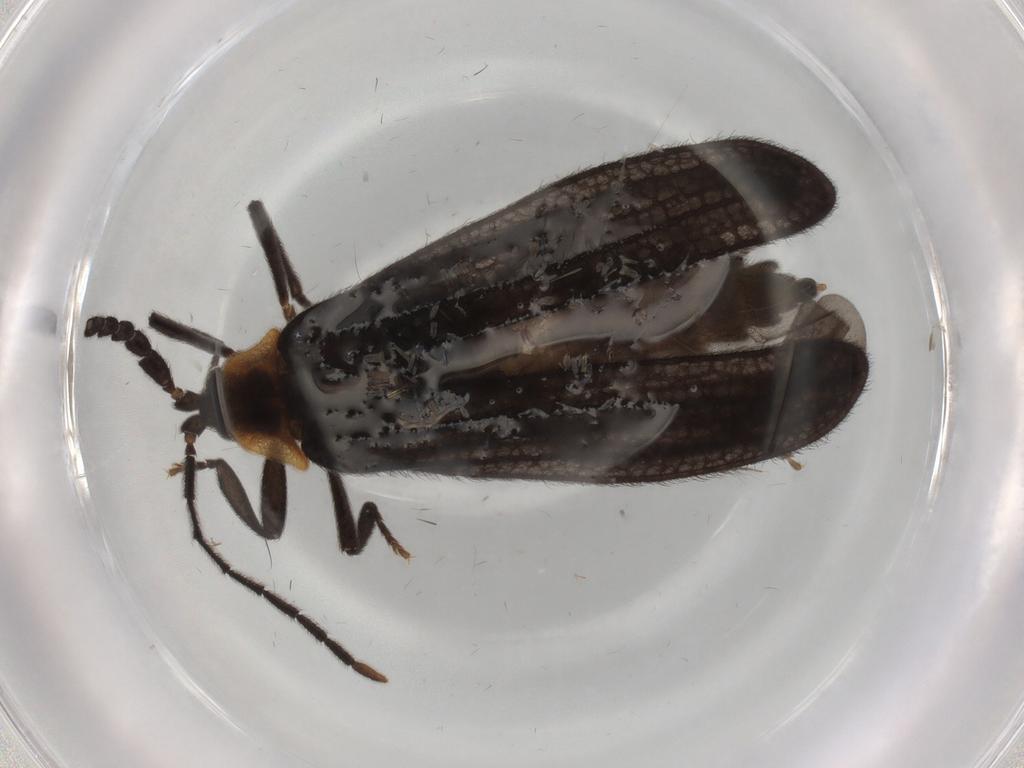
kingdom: Animalia
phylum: Arthropoda
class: Insecta
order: Coleoptera
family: Lycidae
